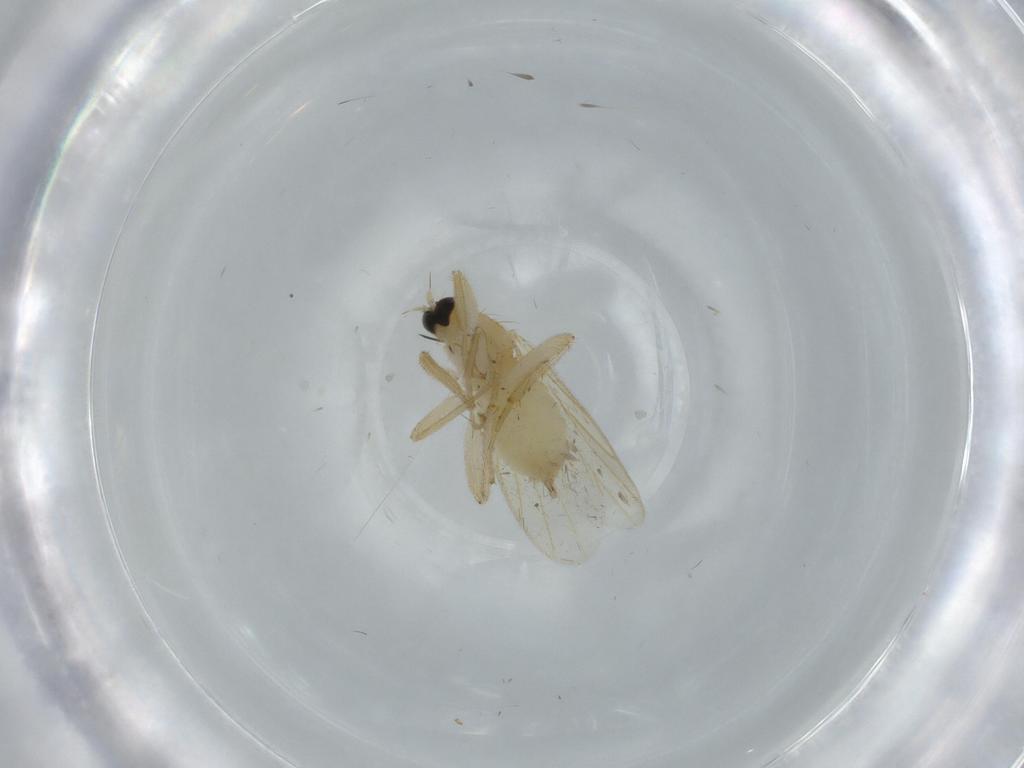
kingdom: Animalia
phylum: Arthropoda
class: Insecta
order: Diptera
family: Hybotidae
